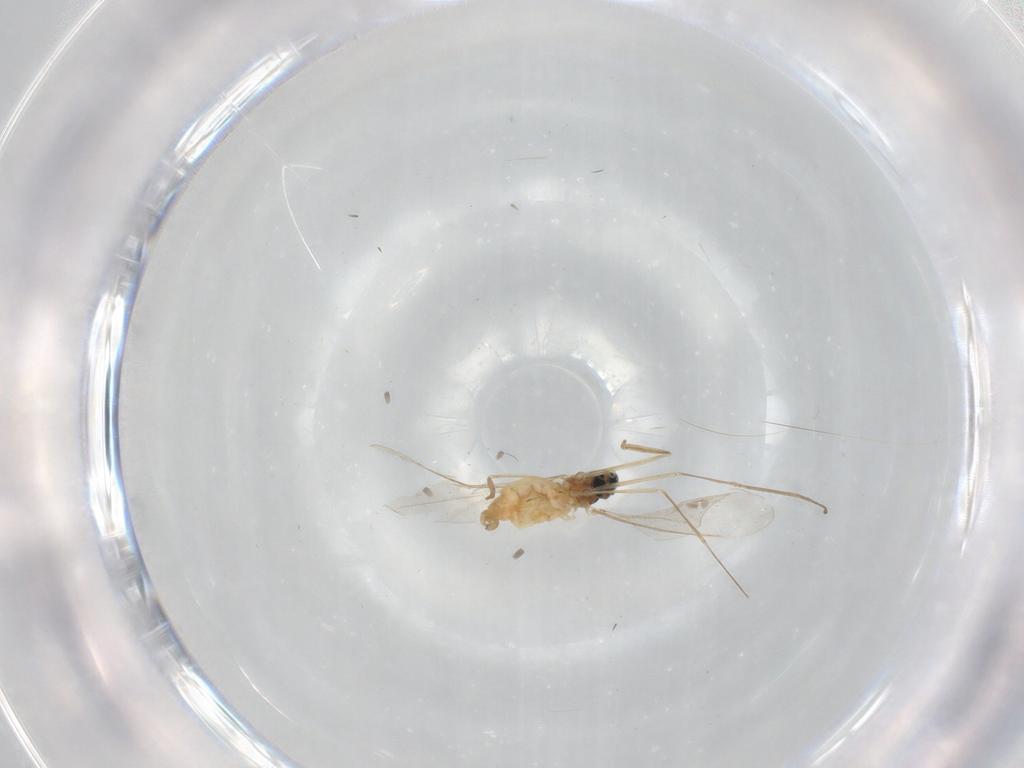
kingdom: Animalia
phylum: Arthropoda
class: Insecta
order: Diptera
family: Cecidomyiidae
